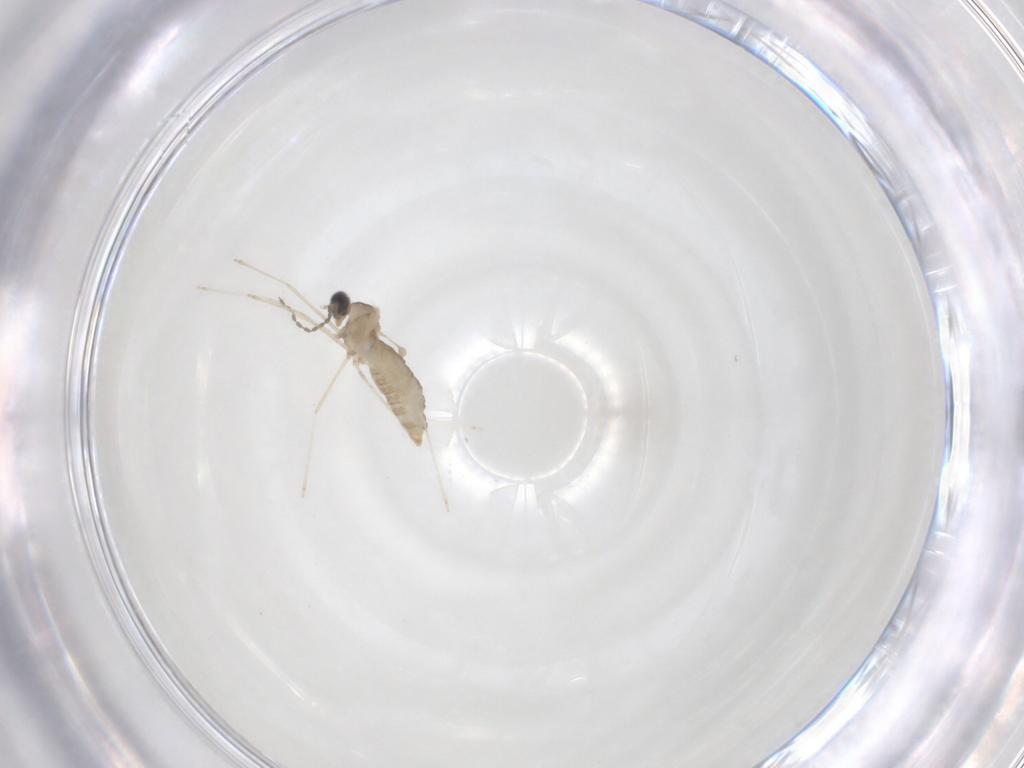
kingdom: Animalia
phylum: Arthropoda
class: Insecta
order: Diptera
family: Cecidomyiidae
